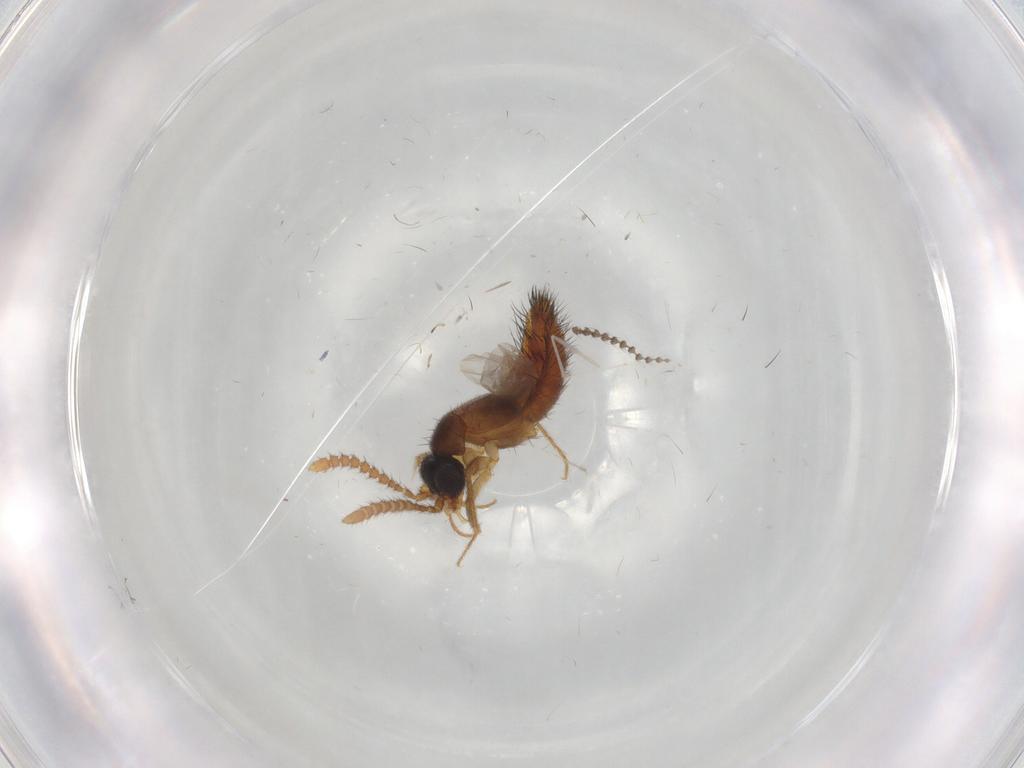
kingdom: Animalia
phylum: Arthropoda
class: Insecta
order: Coleoptera
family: Staphylinidae
